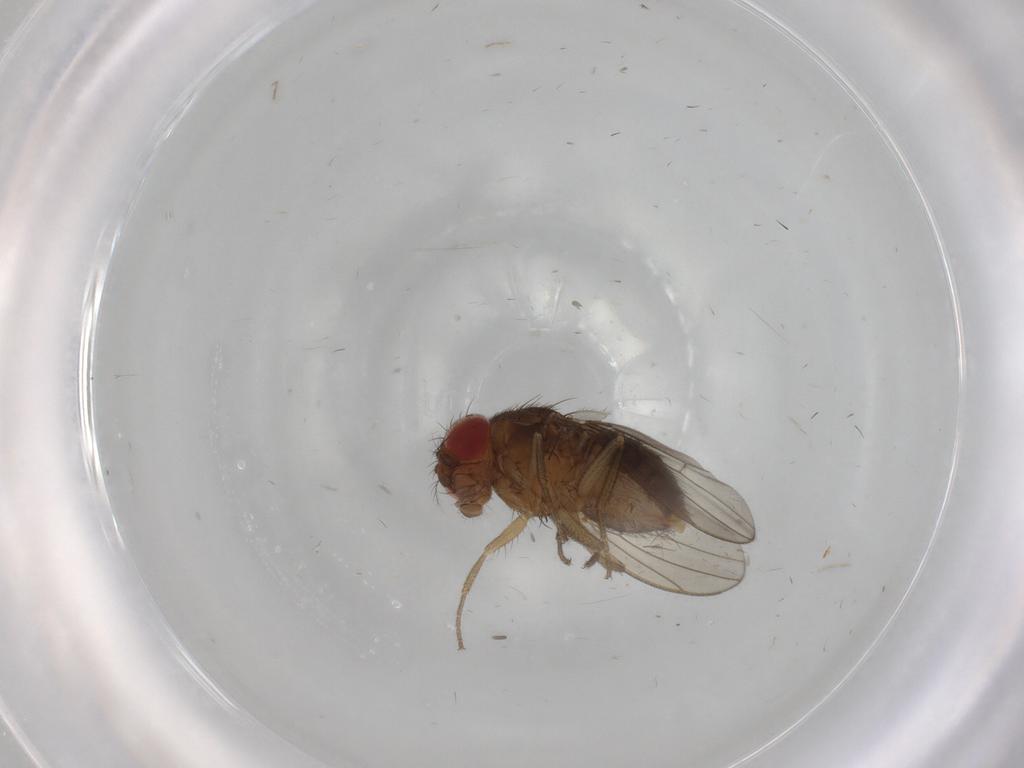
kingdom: Animalia
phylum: Arthropoda
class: Insecta
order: Diptera
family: Drosophilidae
